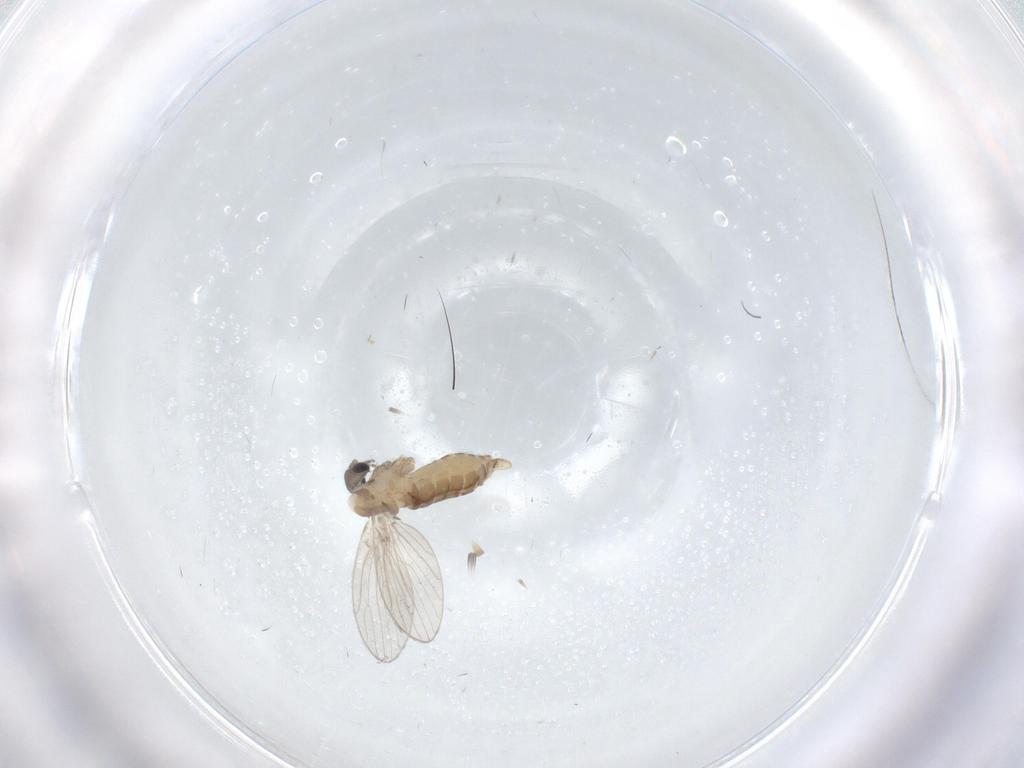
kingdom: Animalia
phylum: Arthropoda
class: Insecta
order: Diptera
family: Psychodidae
